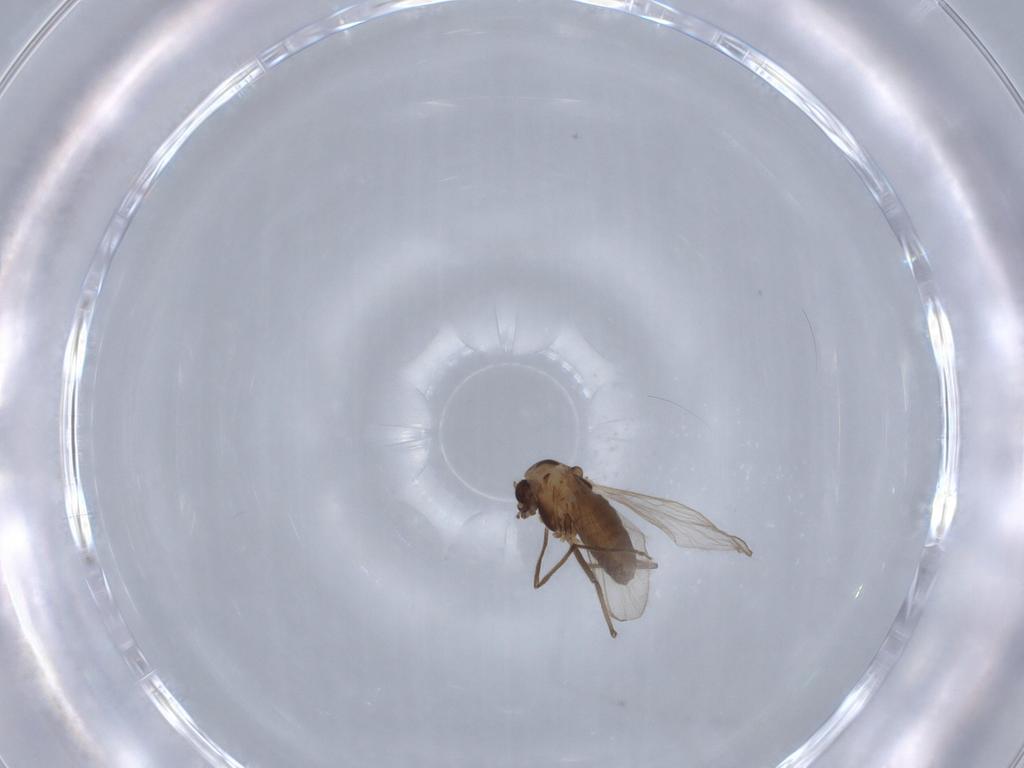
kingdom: Animalia
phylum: Arthropoda
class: Insecta
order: Diptera
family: Chironomidae
